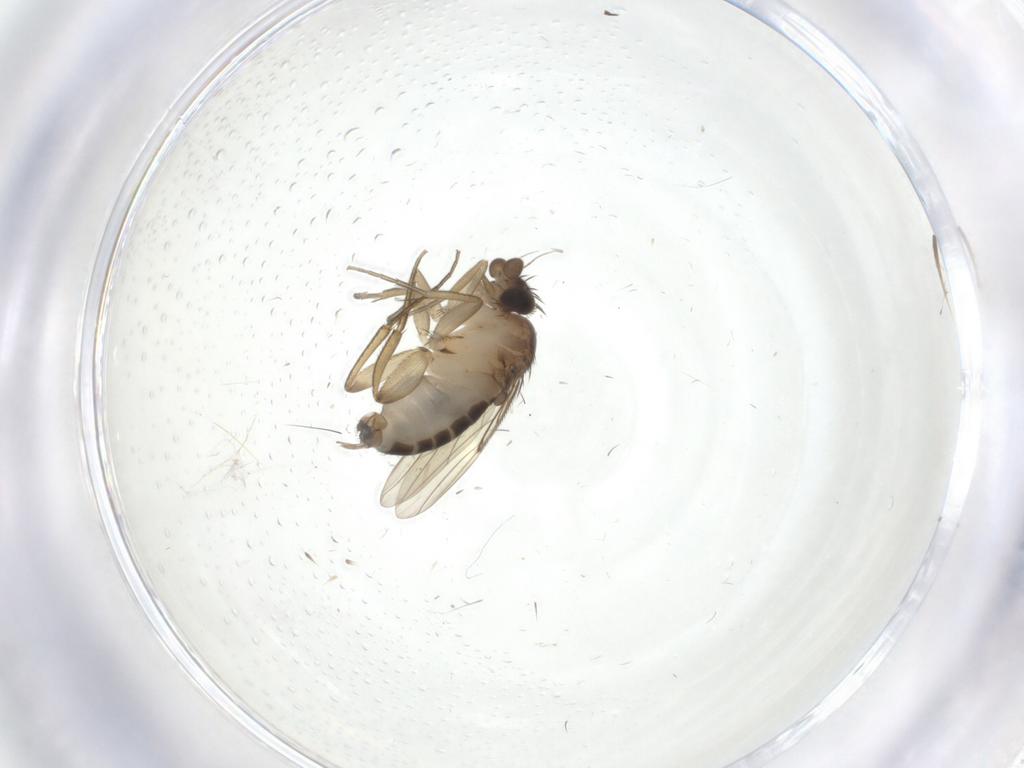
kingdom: Animalia
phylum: Arthropoda
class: Insecta
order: Diptera
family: Phoridae
